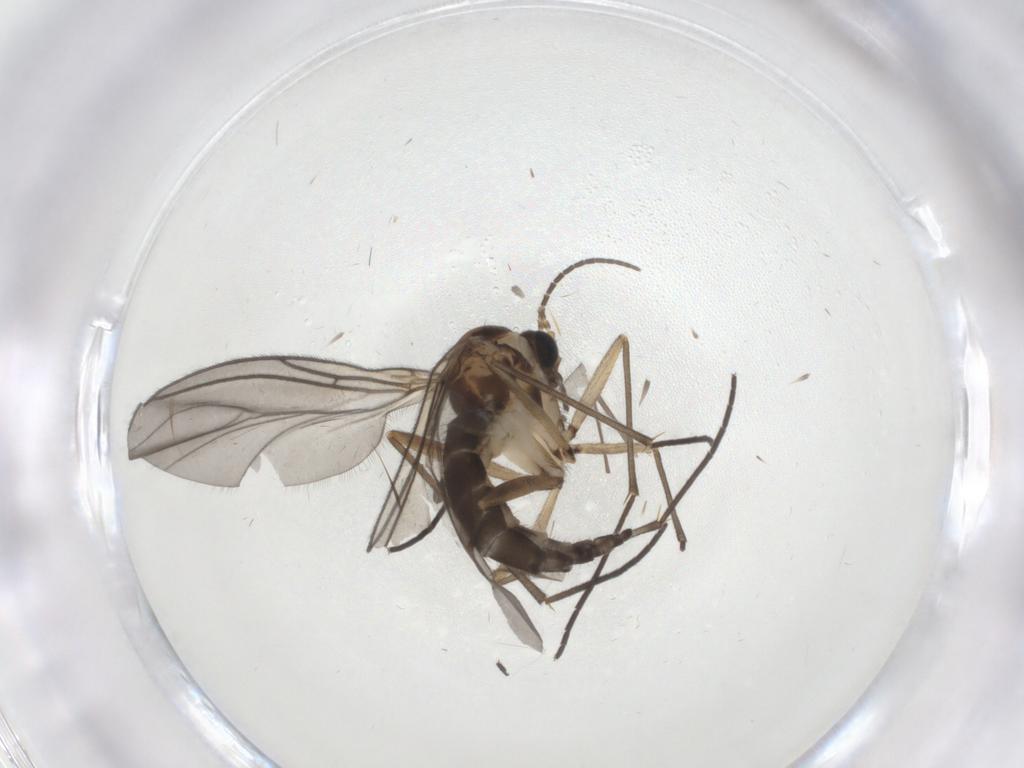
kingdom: Animalia
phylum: Arthropoda
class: Insecta
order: Diptera
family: Sciaridae
